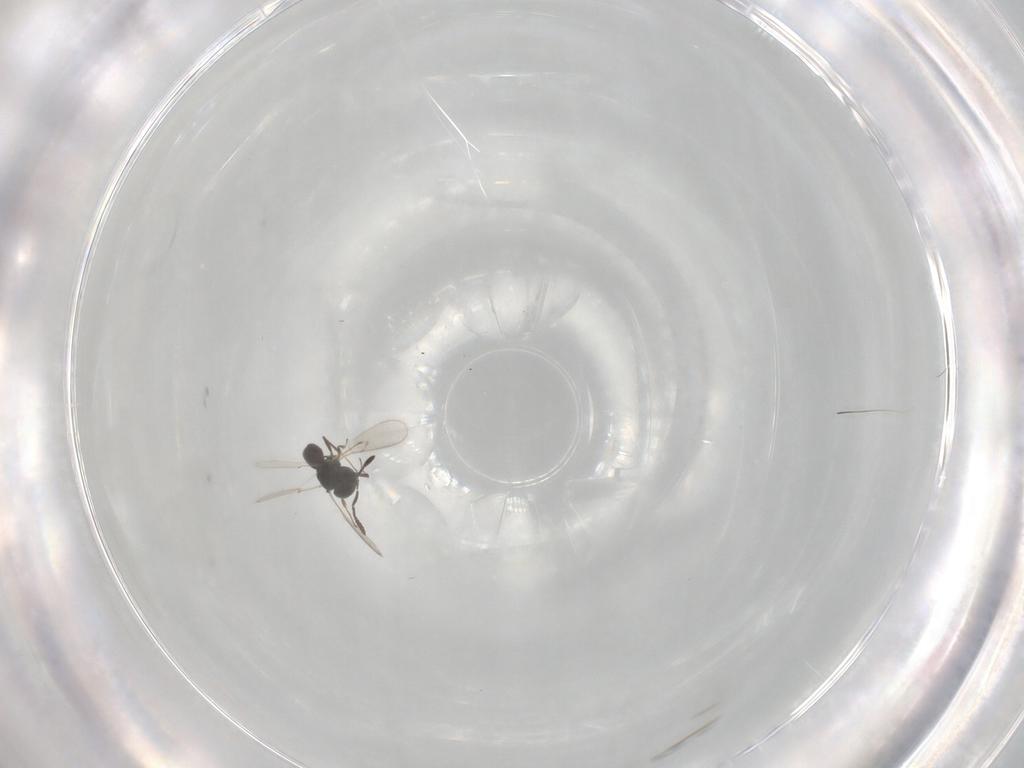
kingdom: Animalia
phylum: Arthropoda
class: Insecta
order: Hymenoptera
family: Scelionidae
